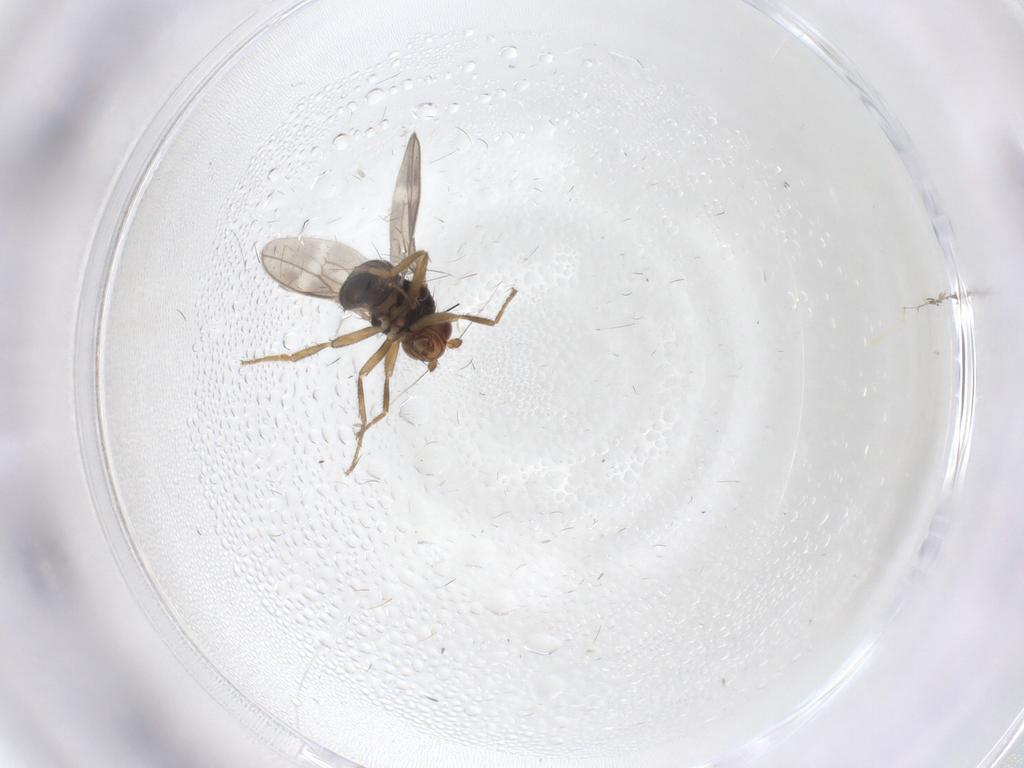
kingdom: Animalia
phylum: Arthropoda
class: Insecta
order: Diptera
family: Sphaeroceridae
